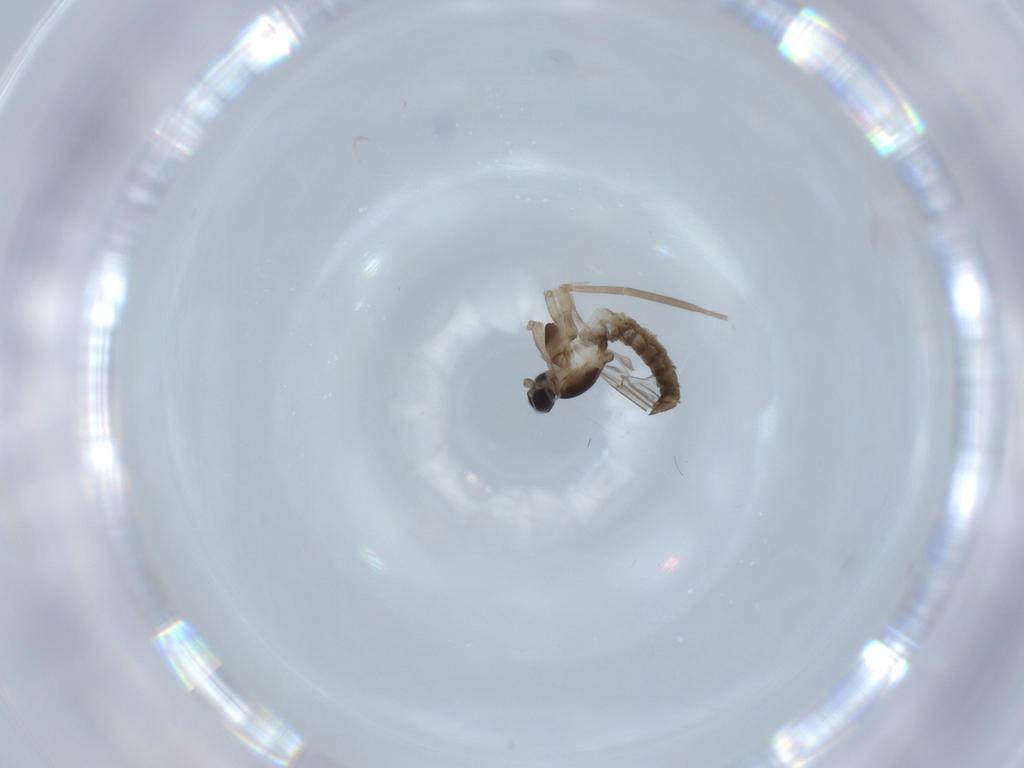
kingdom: Animalia
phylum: Arthropoda
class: Insecta
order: Diptera
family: Cecidomyiidae
